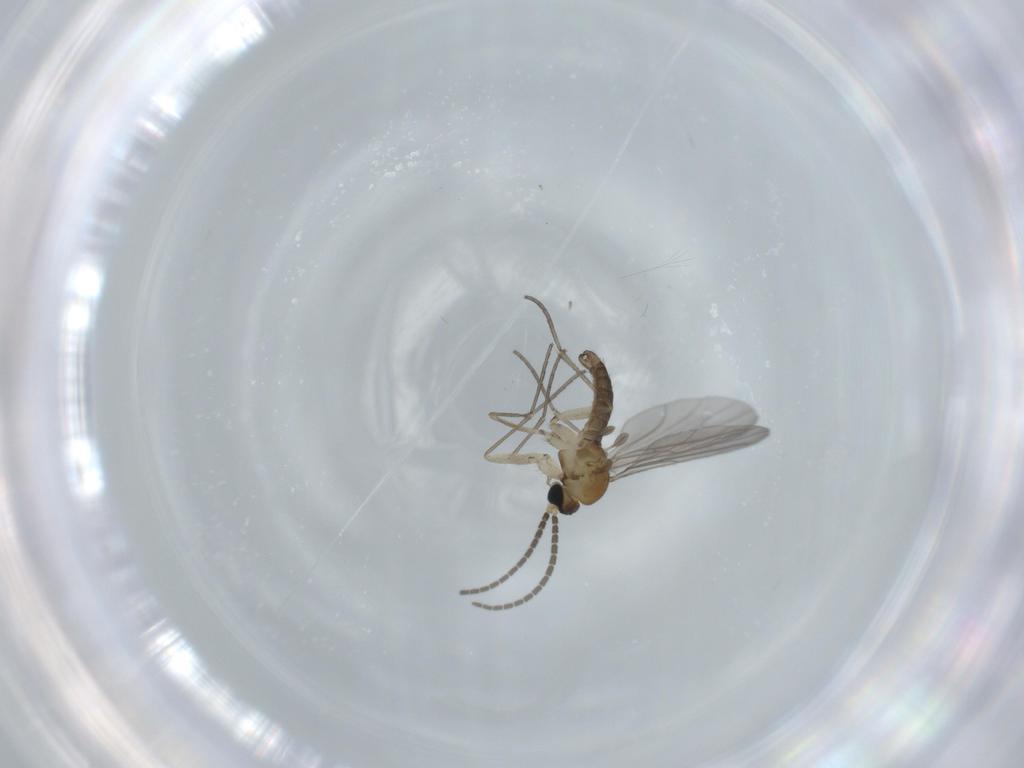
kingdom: Animalia
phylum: Arthropoda
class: Insecta
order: Diptera
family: Sciaridae
